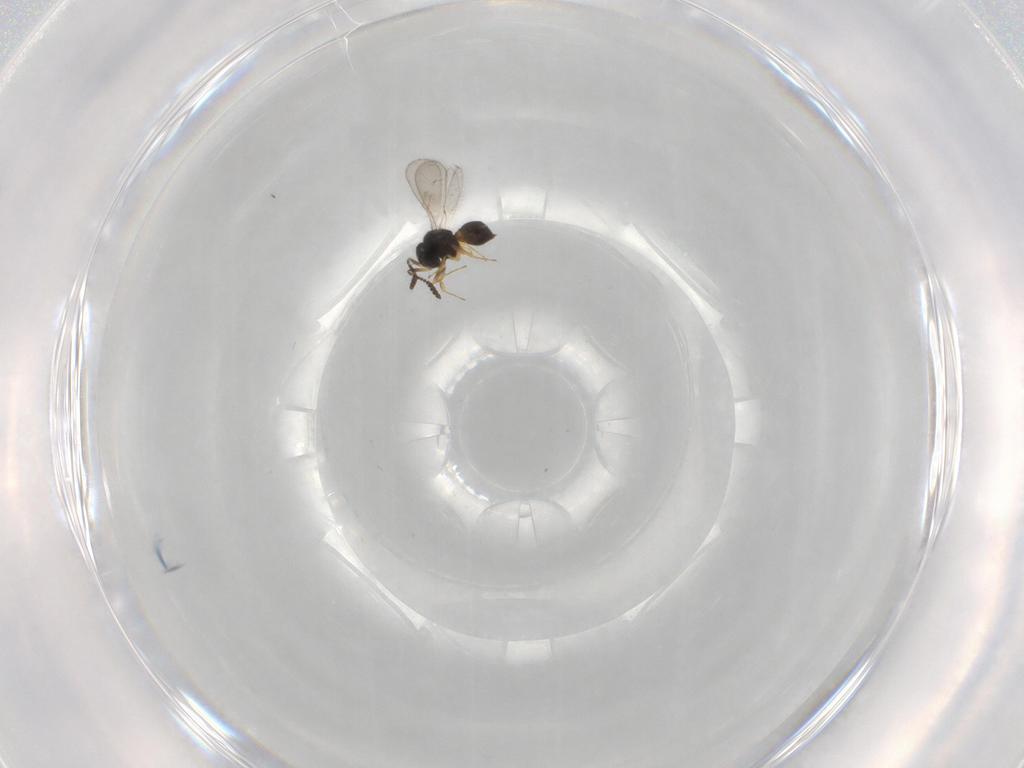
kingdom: Animalia
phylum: Arthropoda
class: Insecta
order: Hymenoptera
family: Scelionidae
